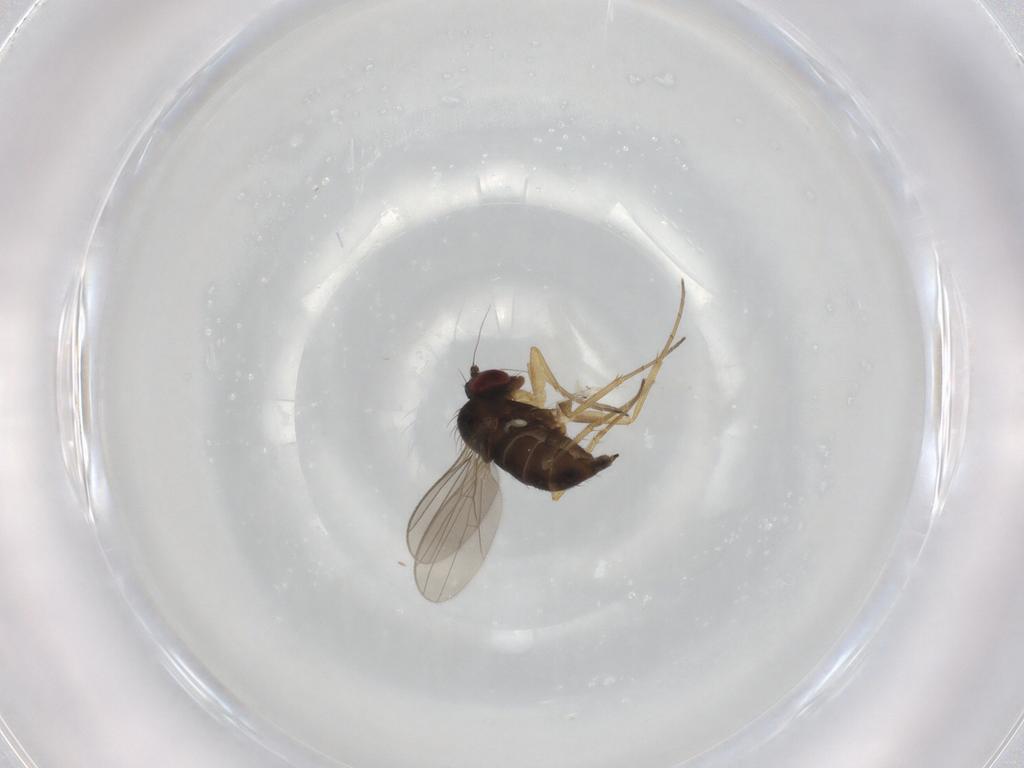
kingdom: Animalia
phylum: Arthropoda
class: Insecta
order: Diptera
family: Dolichopodidae
